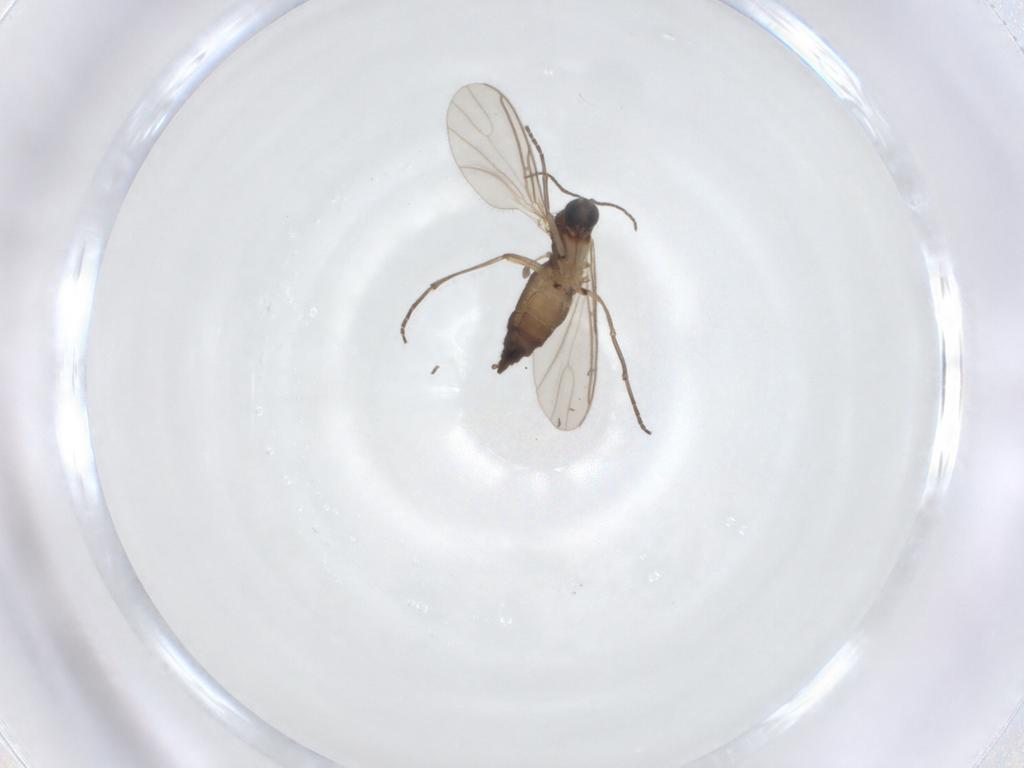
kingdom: Animalia
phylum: Arthropoda
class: Insecta
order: Diptera
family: Sciaridae
